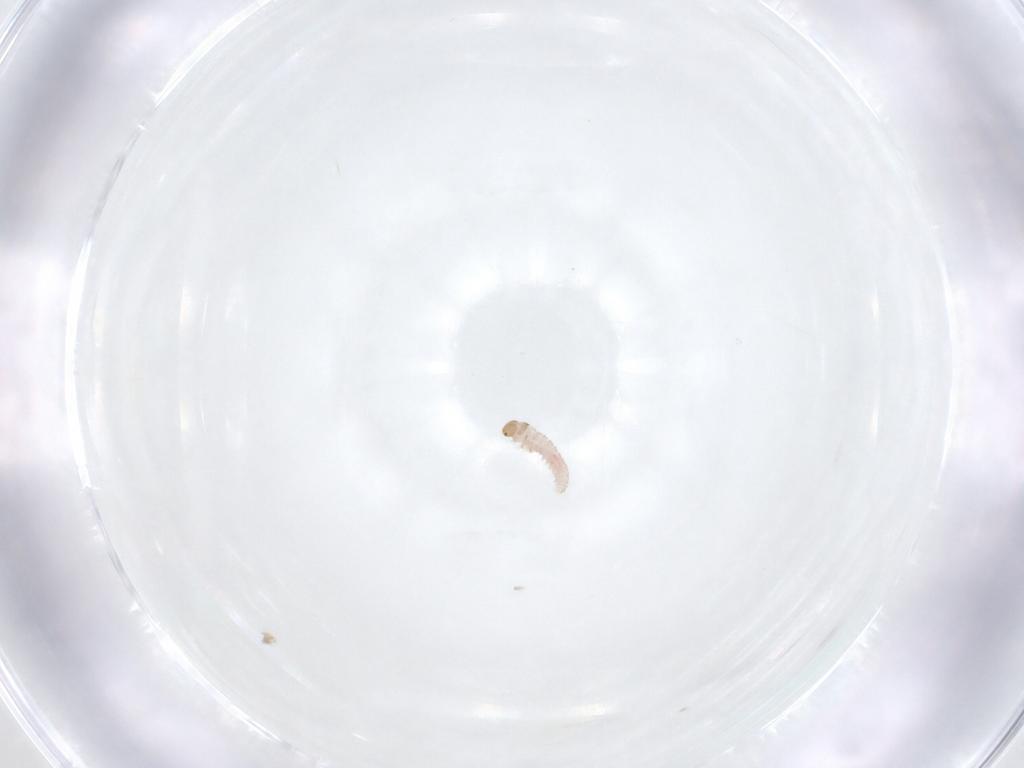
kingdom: Animalia
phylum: Arthropoda
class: Insecta
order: Lepidoptera
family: Blastobasidae
